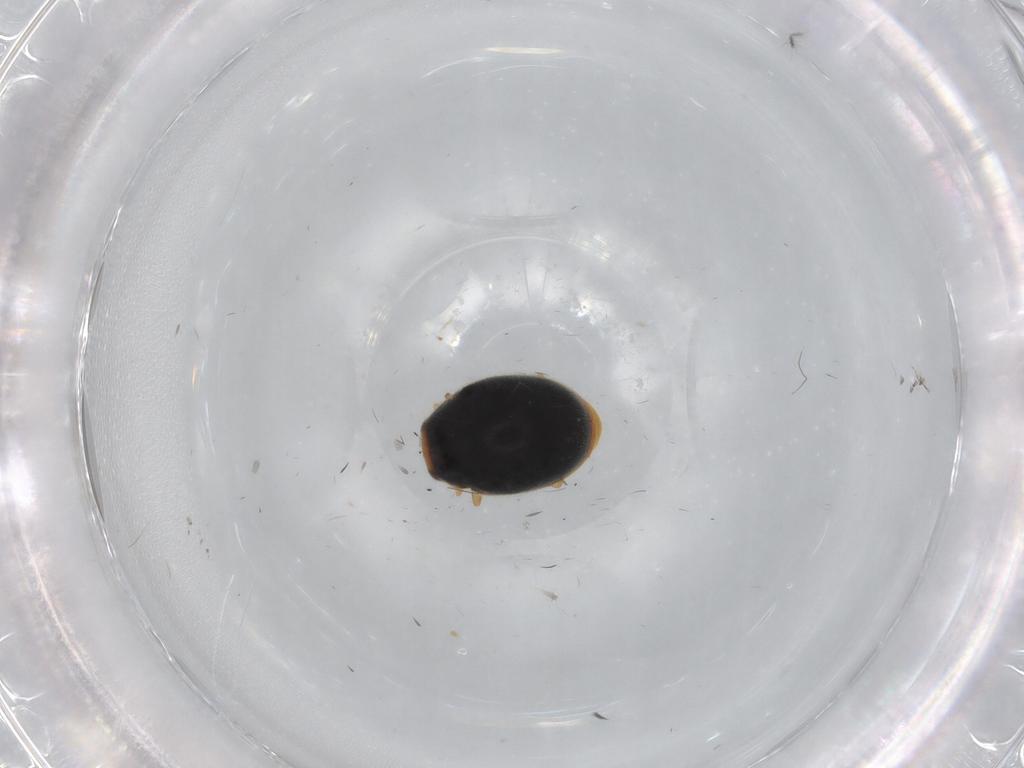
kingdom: Animalia
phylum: Arthropoda
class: Insecta
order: Coleoptera
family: Coccinellidae
